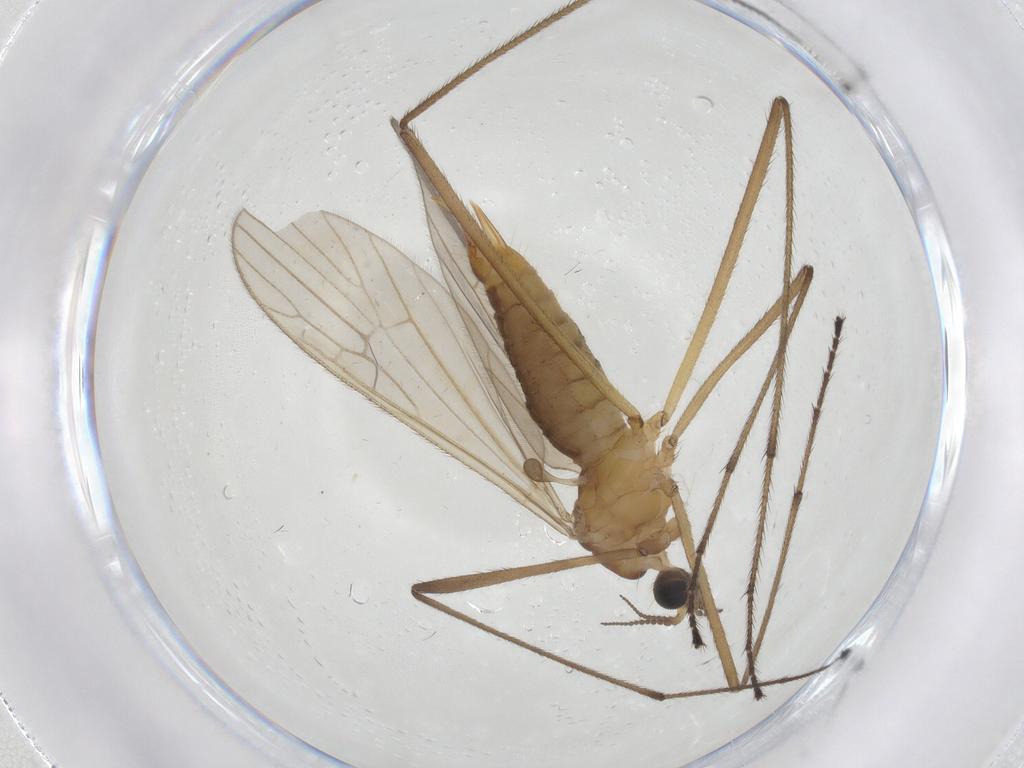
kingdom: Animalia
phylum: Arthropoda
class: Insecta
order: Diptera
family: Limoniidae
